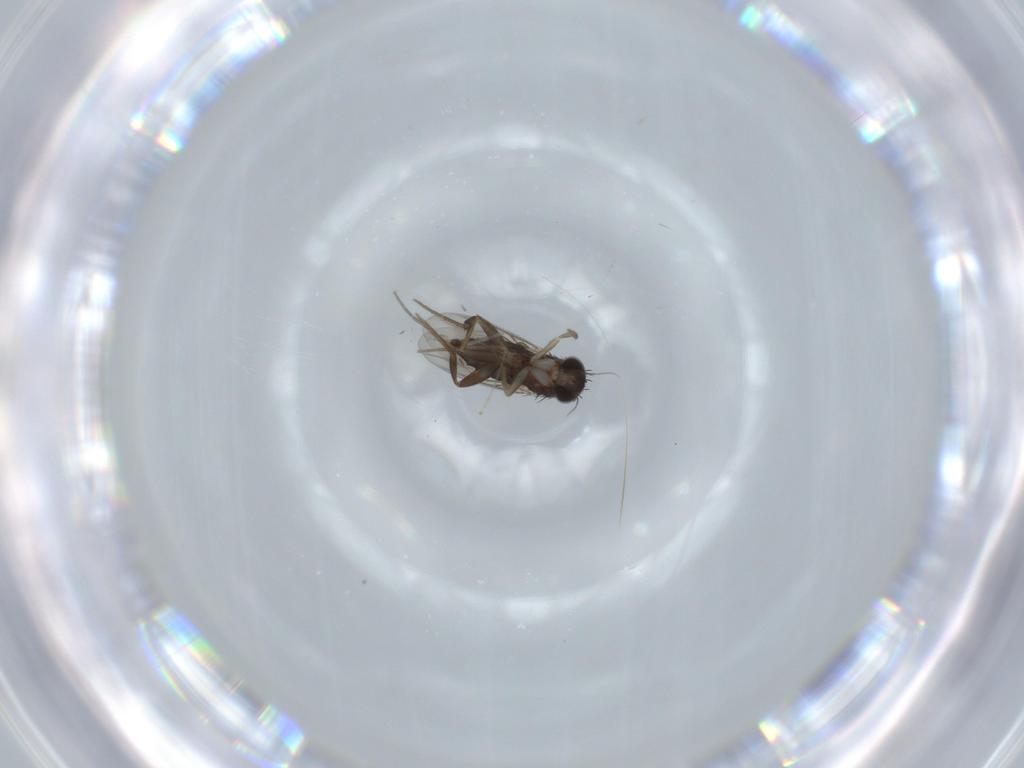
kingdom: Animalia
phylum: Arthropoda
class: Insecta
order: Diptera
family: Phoridae
